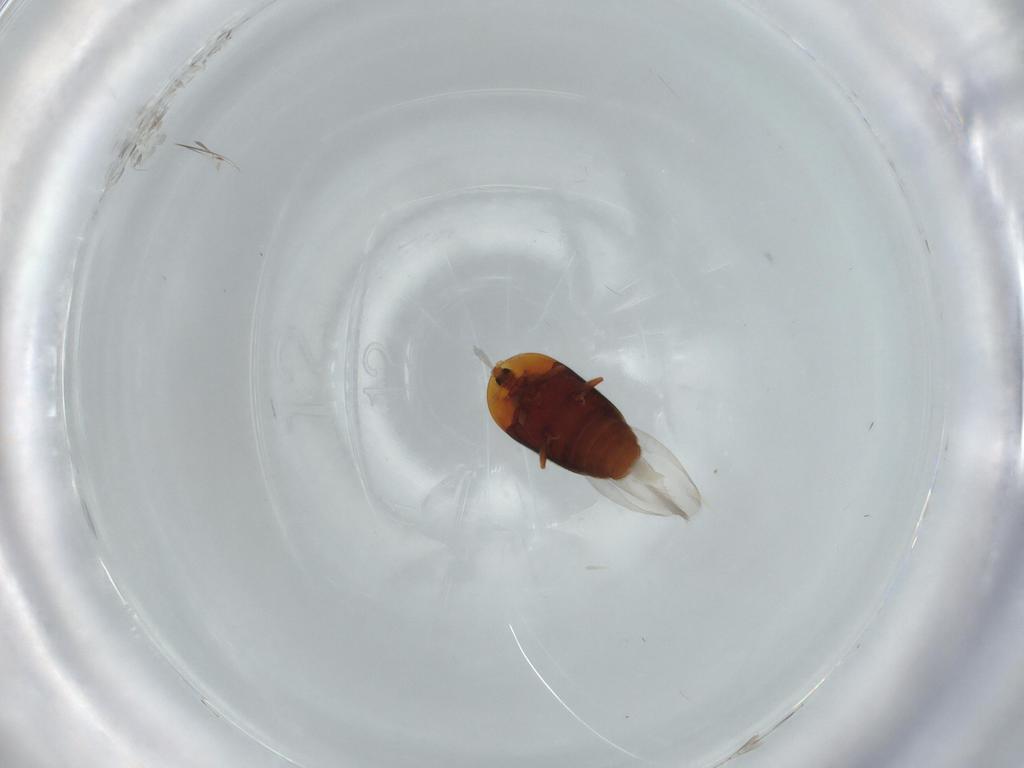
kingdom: Animalia
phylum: Arthropoda
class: Insecta
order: Coleoptera
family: Corylophidae
